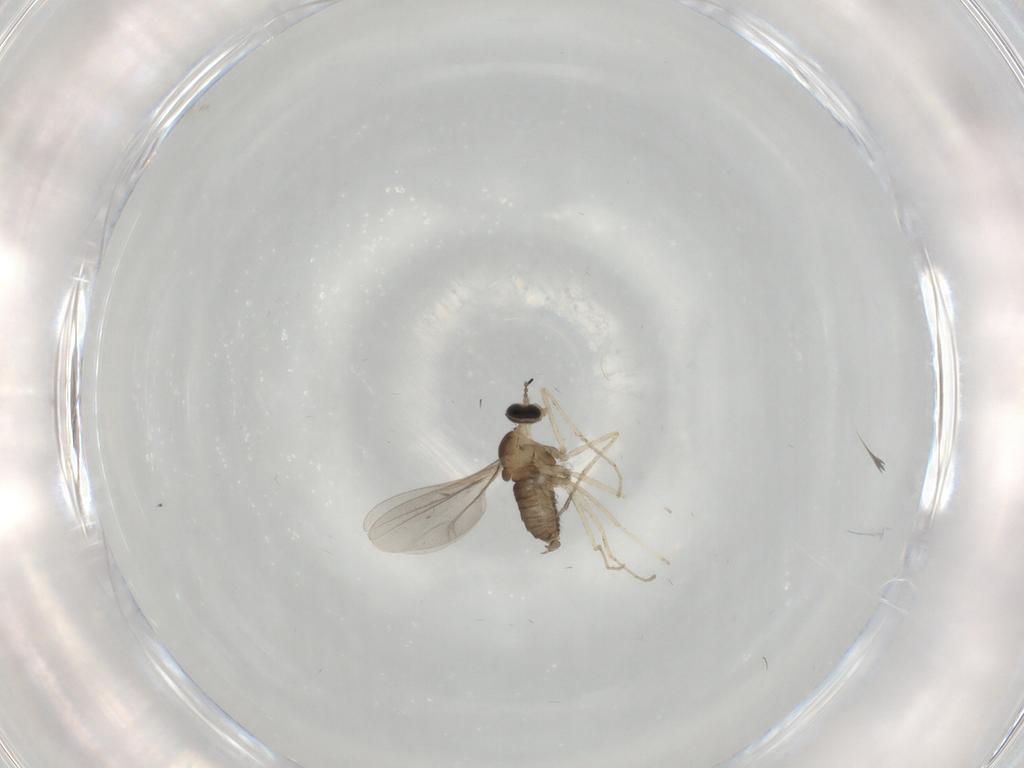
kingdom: Animalia
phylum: Arthropoda
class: Insecta
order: Diptera
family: Cecidomyiidae
